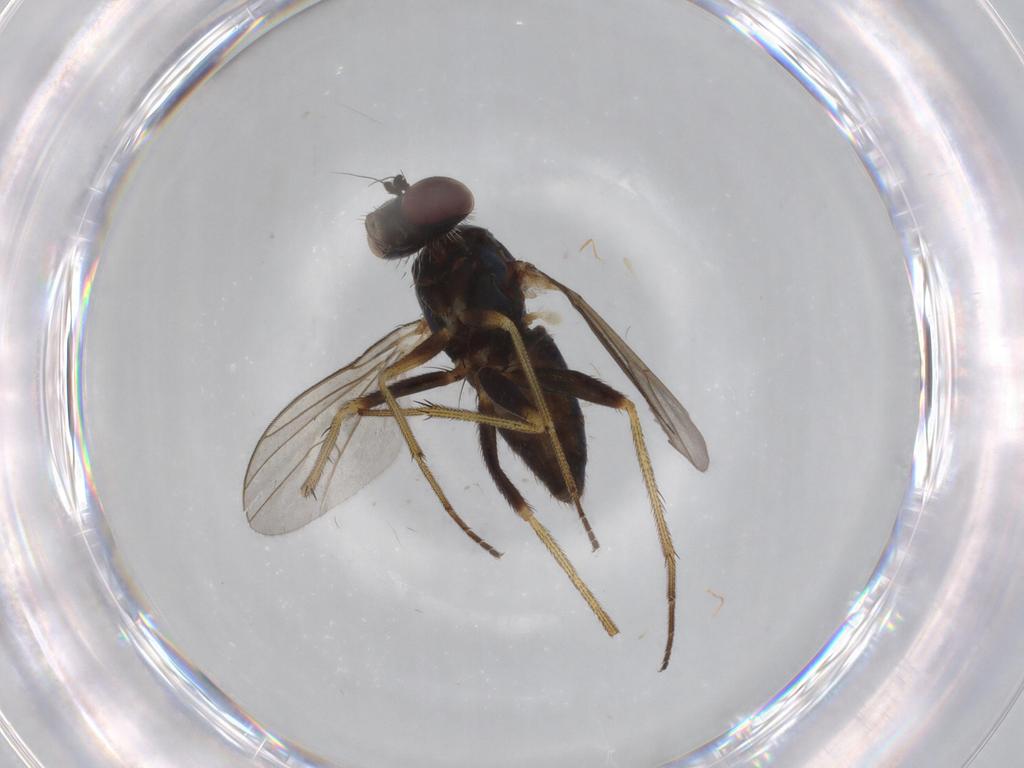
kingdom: Animalia
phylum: Arthropoda
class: Insecta
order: Diptera
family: Dolichopodidae
